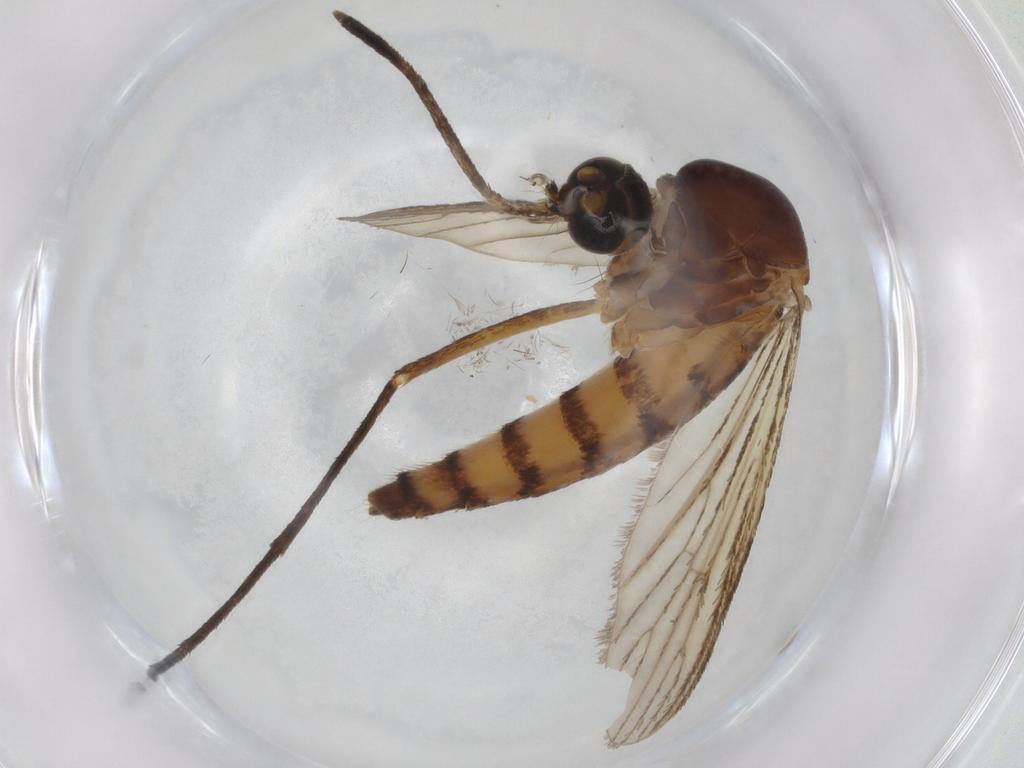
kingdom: Animalia
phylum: Arthropoda
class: Insecta
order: Diptera
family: Cecidomyiidae
